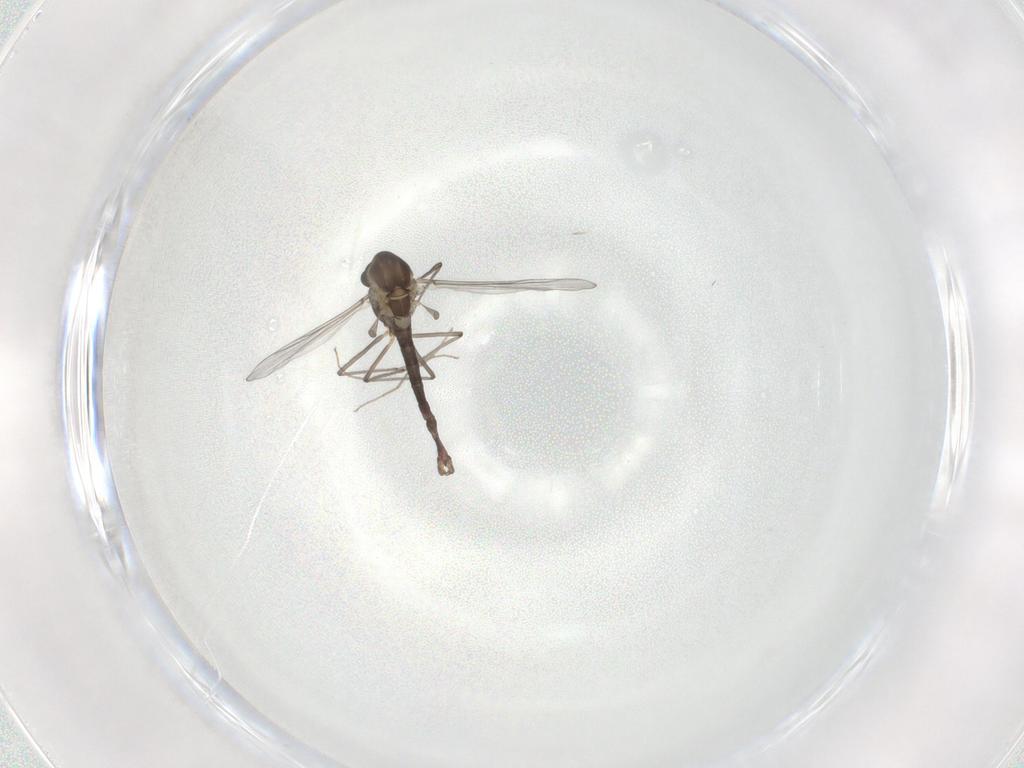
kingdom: Animalia
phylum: Arthropoda
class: Insecta
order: Diptera
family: Chironomidae
